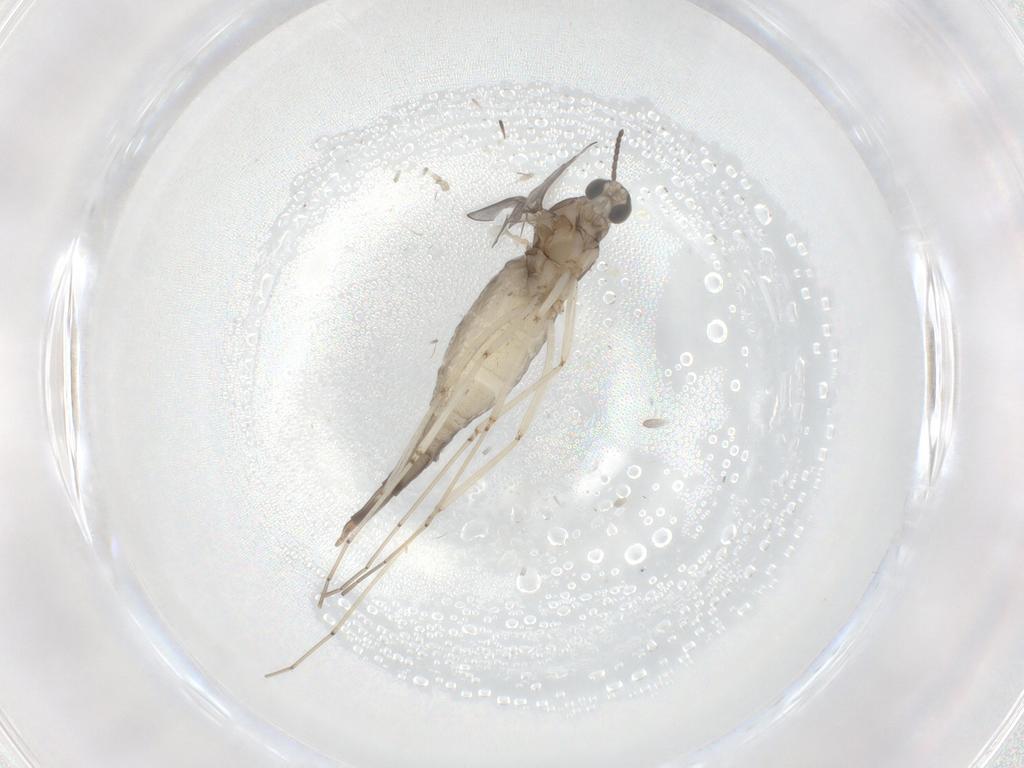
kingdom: Animalia
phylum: Arthropoda
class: Insecta
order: Diptera
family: Cecidomyiidae
